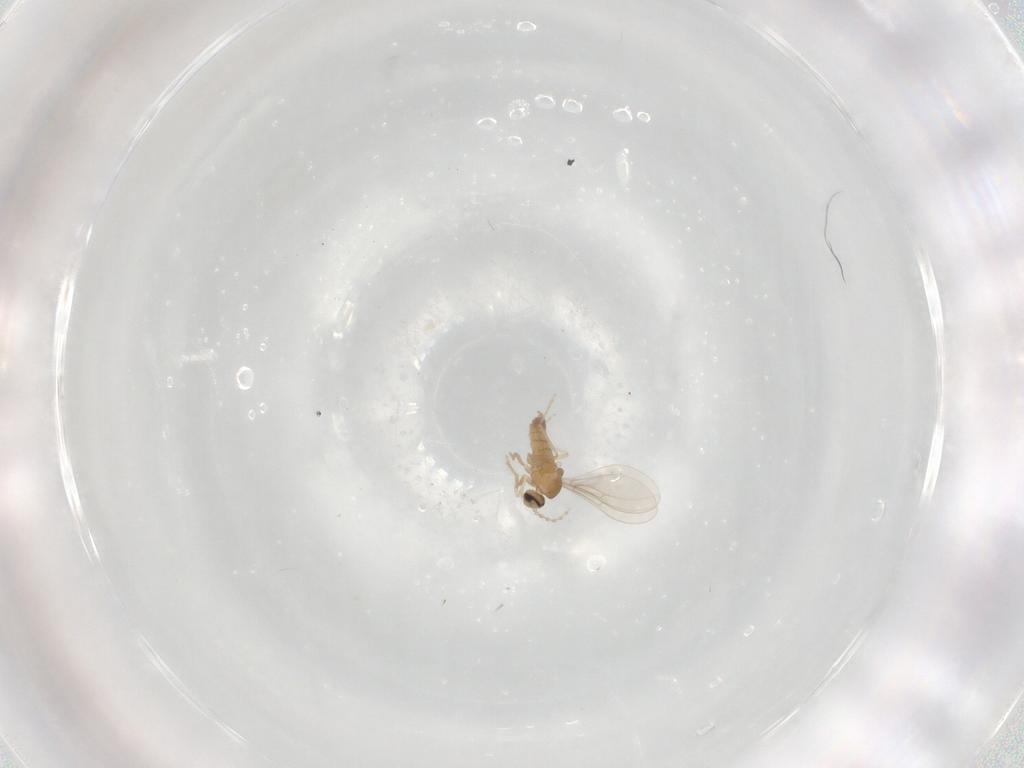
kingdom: Animalia
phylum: Arthropoda
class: Insecta
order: Diptera
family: Cecidomyiidae
